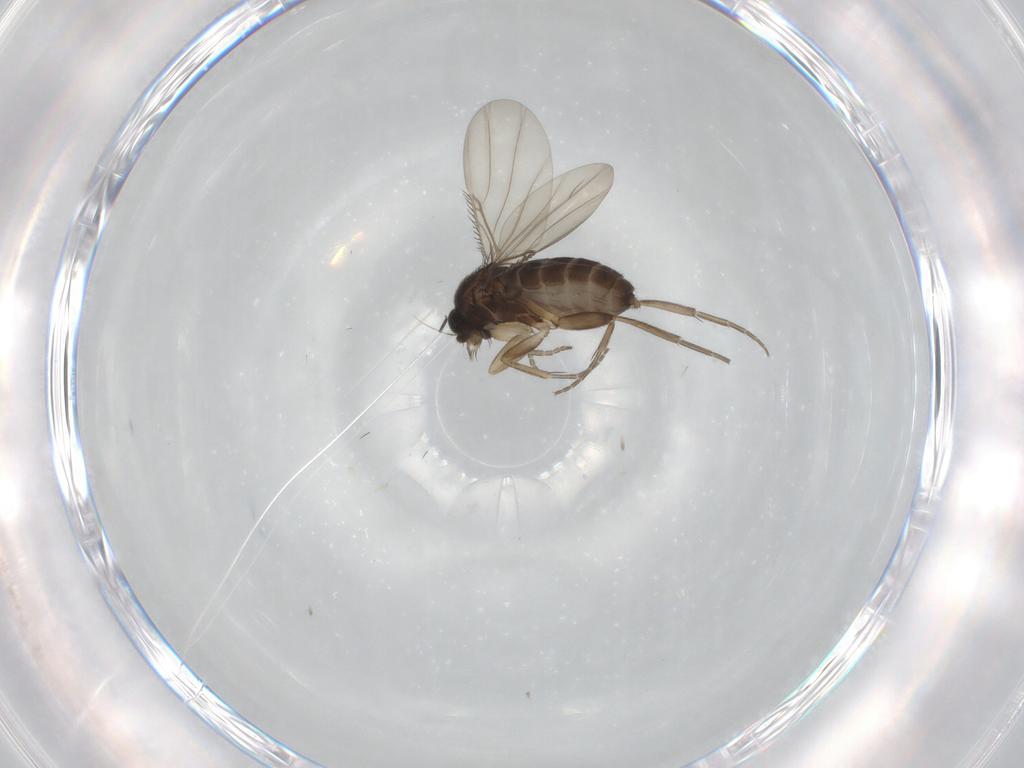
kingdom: Animalia
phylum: Arthropoda
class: Insecta
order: Diptera
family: Phoridae
